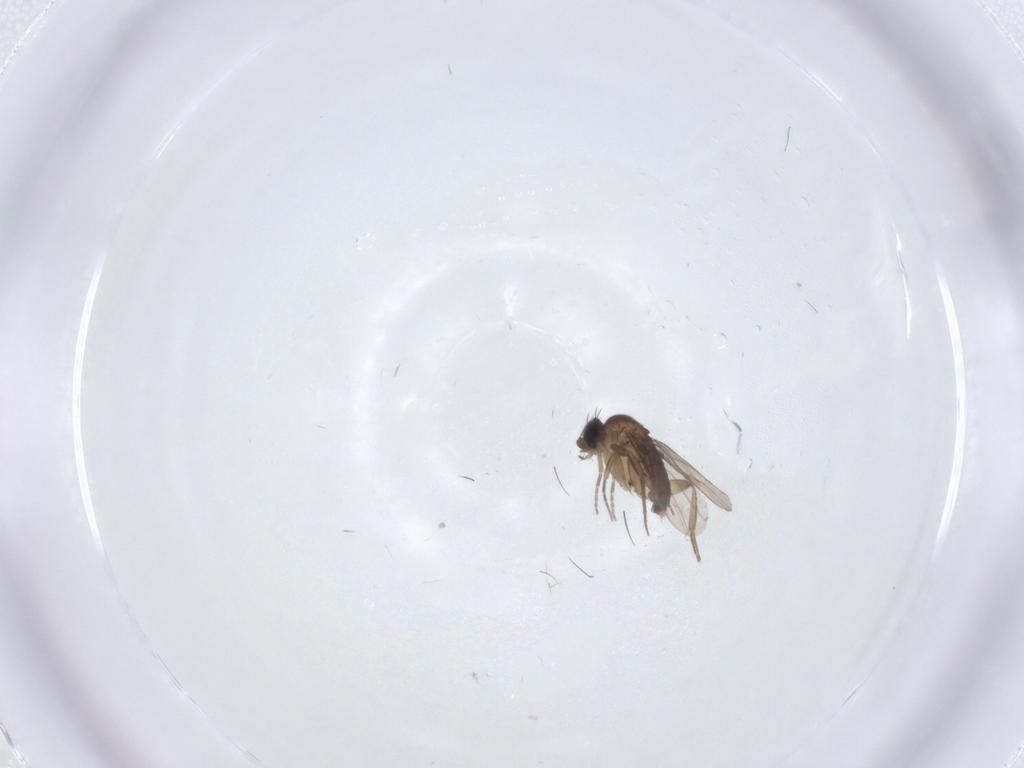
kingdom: Animalia
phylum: Arthropoda
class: Insecta
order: Diptera
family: Phoridae
